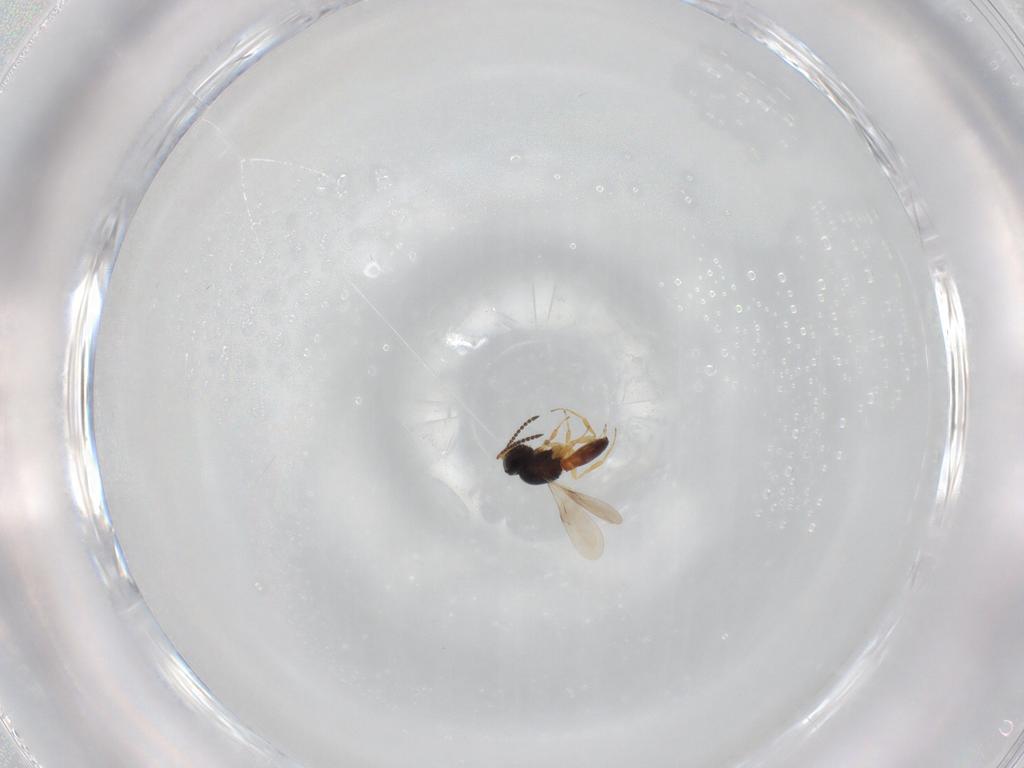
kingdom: Animalia
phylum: Arthropoda
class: Insecta
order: Hymenoptera
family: Scelionidae
